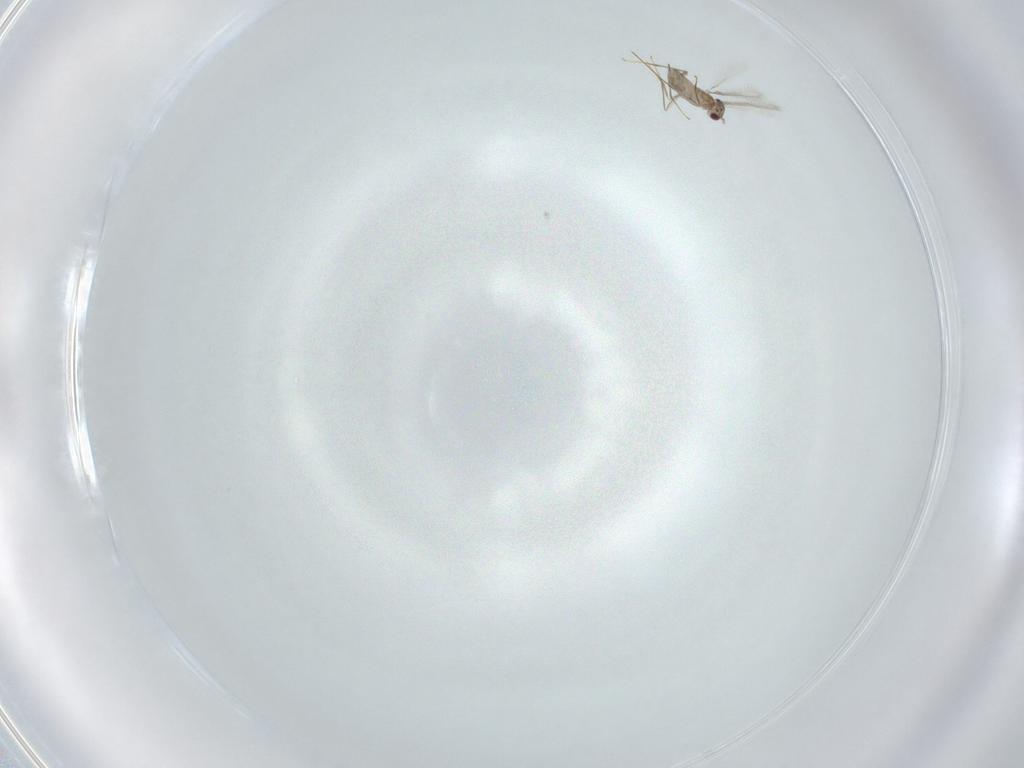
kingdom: Animalia
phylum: Arthropoda
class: Insecta
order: Hymenoptera
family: Mymaridae
